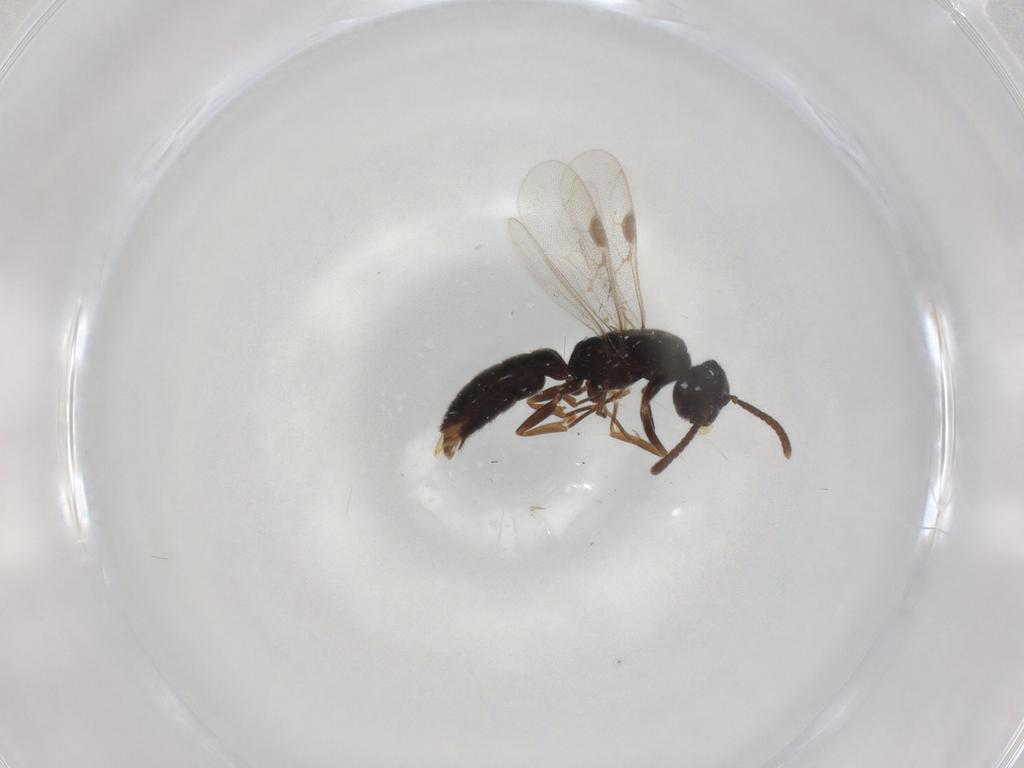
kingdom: Animalia
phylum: Arthropoda
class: Insecta
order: Hymenoptera
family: Formicidae
